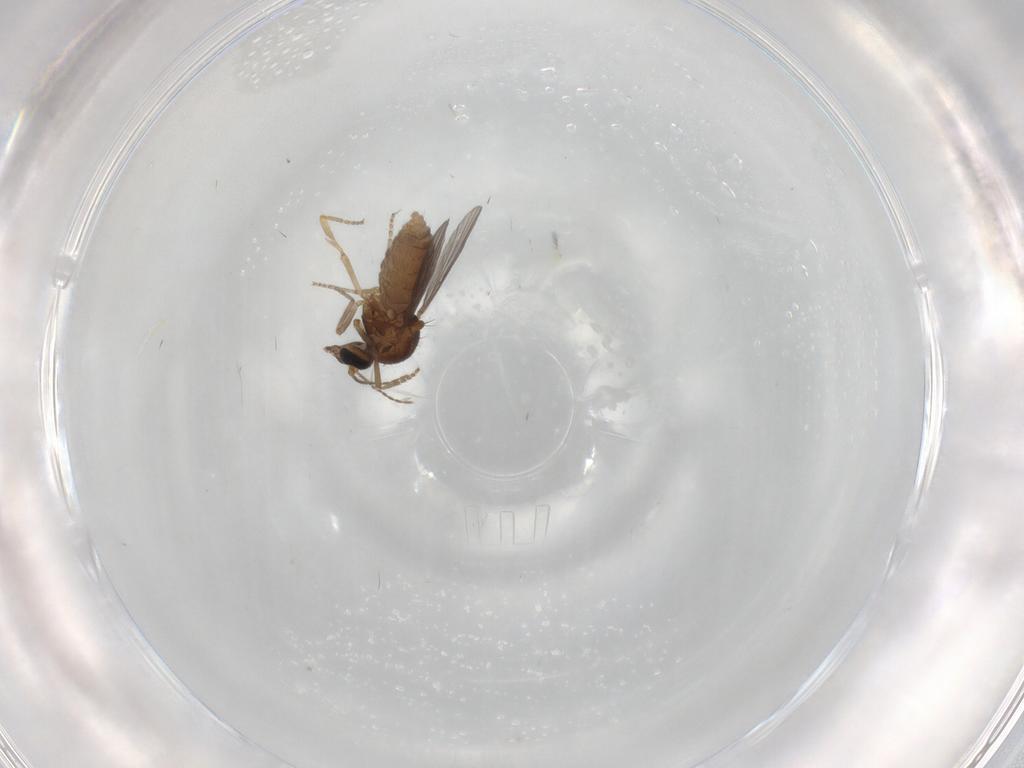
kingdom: Animalia
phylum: Arthropoda
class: Insecta
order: Diptera
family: Ceratopogonidae
